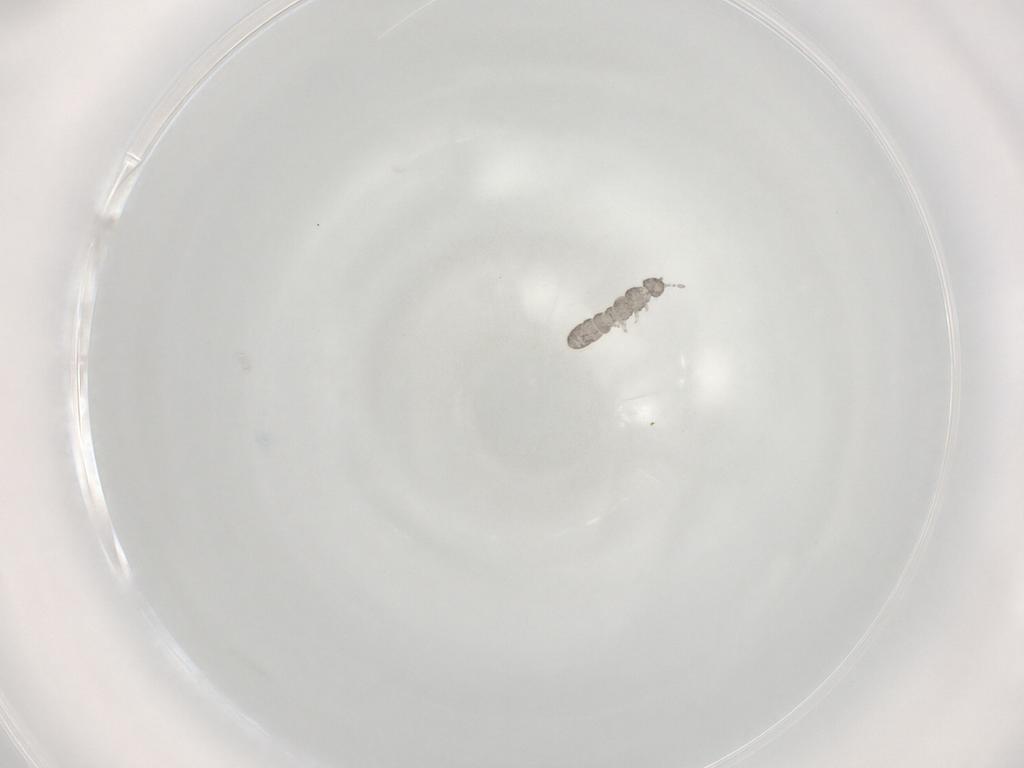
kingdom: Animalia
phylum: Arthropoda
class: Collembola
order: Entomobryomorpha
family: Isotomidae
